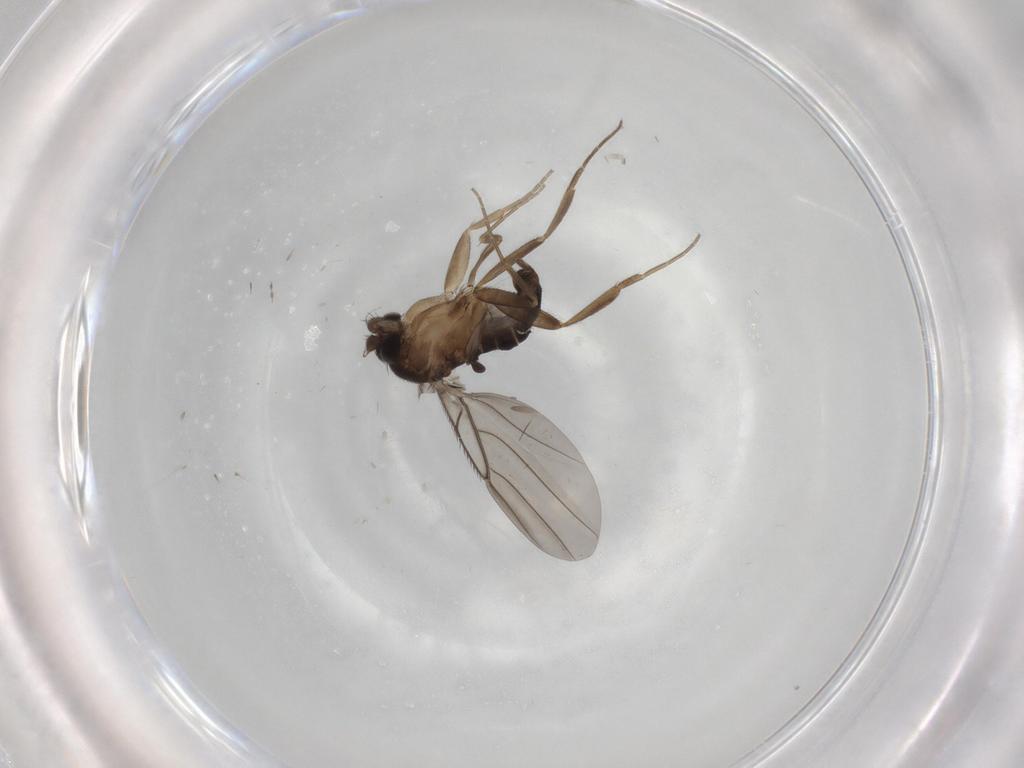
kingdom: Animalia
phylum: Arthropoda
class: Insecta
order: Diptera
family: Phoridae
